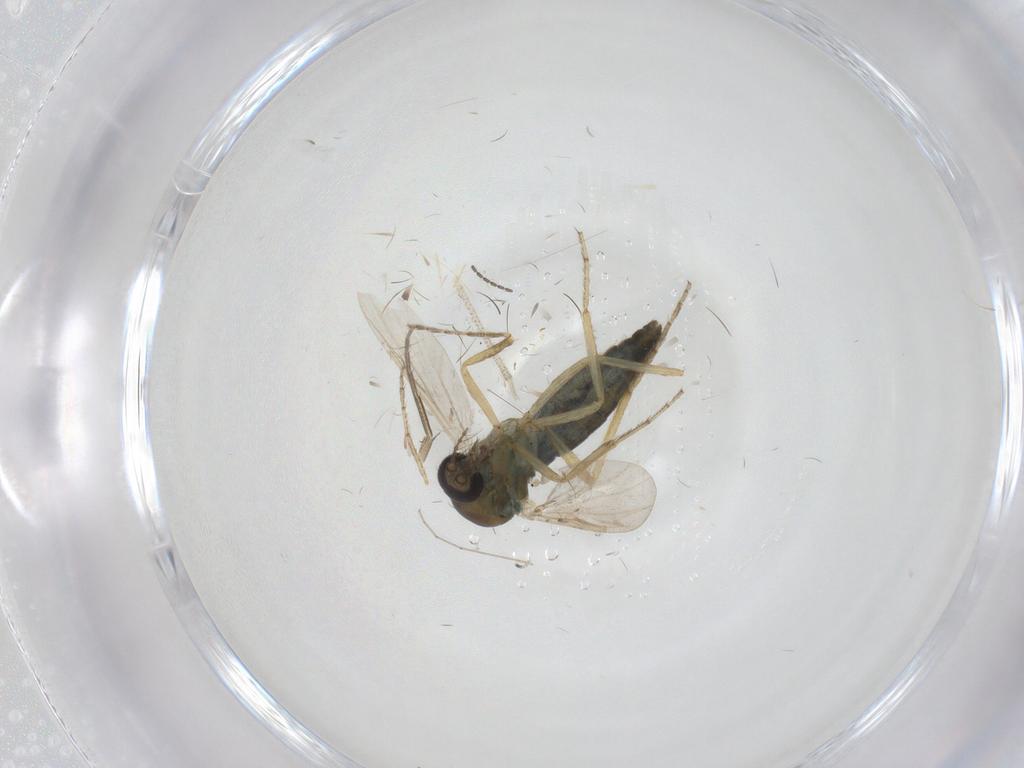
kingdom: Animalia
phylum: Arthropoda
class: Insecta
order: Diptera
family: Ceratopogonidae
